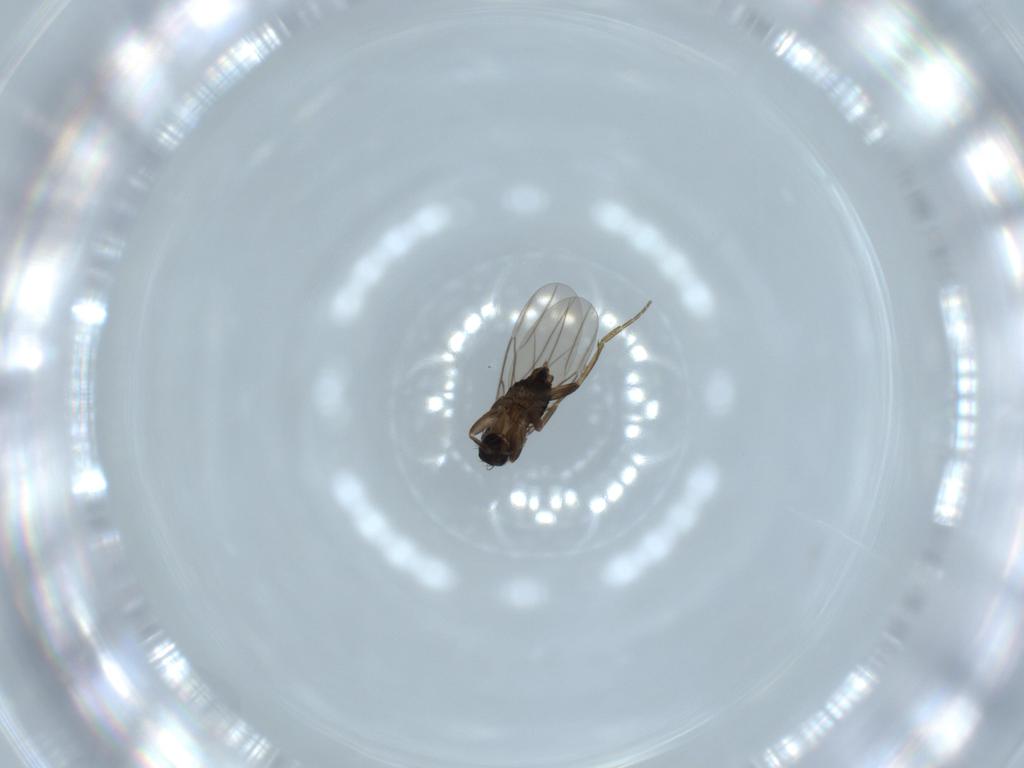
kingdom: Animalia
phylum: Arthropoda
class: Insecta
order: Diptera
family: Phoridae
